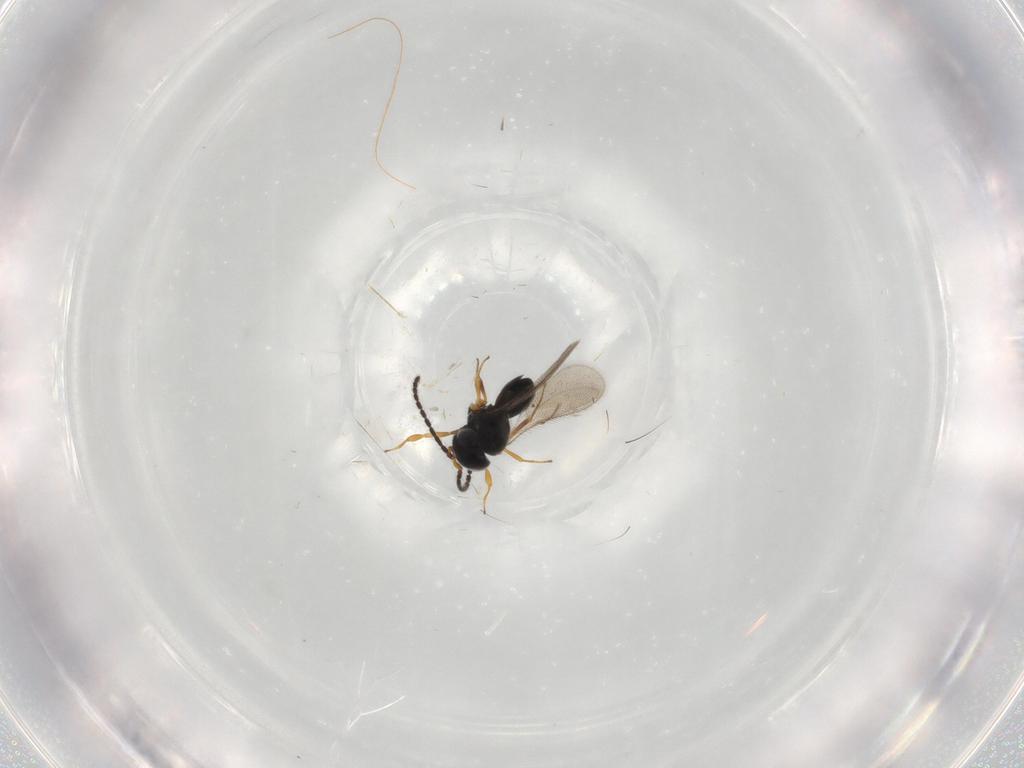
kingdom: Animalia
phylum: Arthropoda
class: Insecta
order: Hymenoptera
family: Scelionidae
